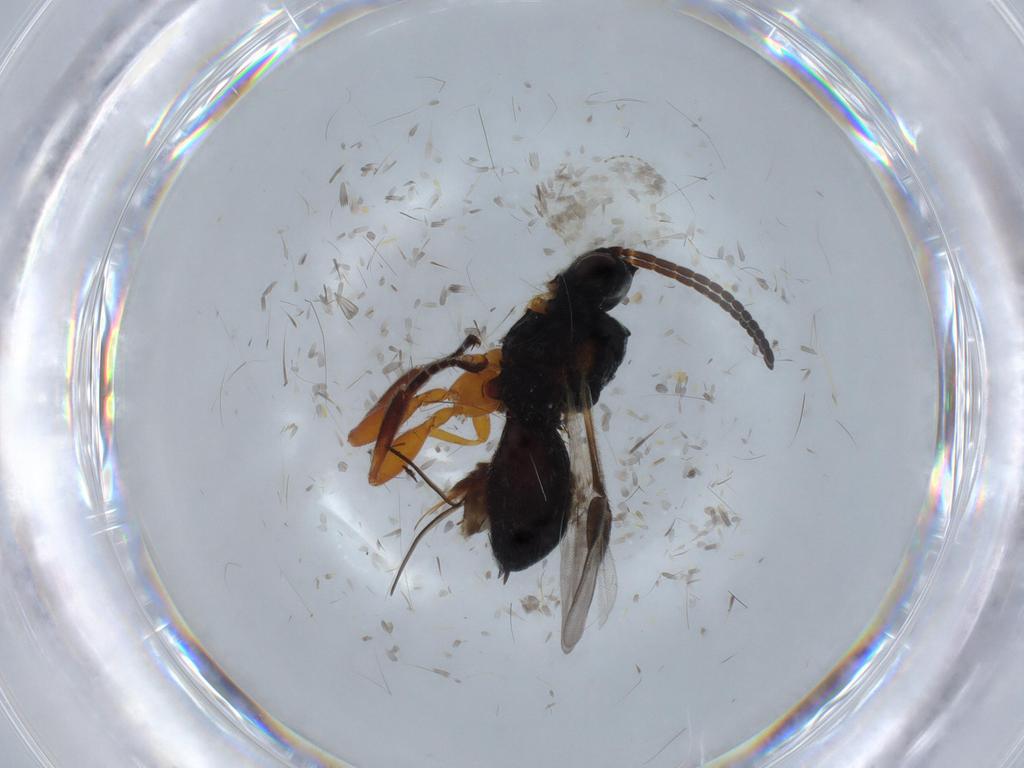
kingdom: Animalia
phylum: Arthropoda
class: Insecta
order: Hymenoptera
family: Braconidae
